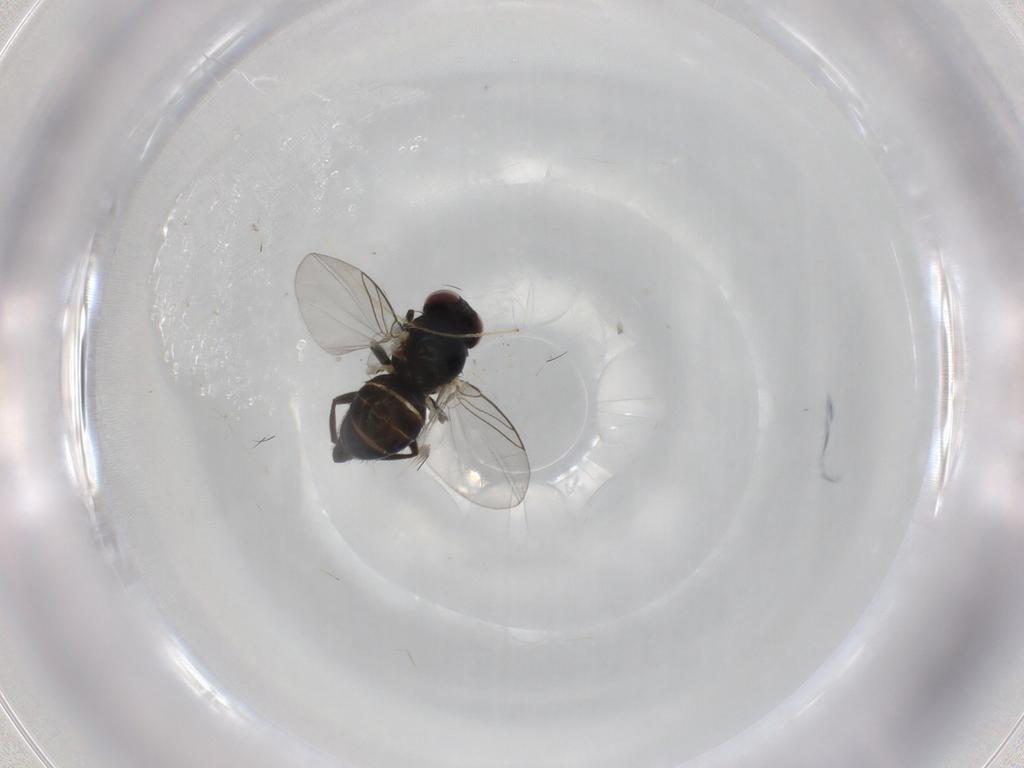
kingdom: Animalia
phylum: Arthropoda
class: Insecta
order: Diptera
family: Agromyzidae
